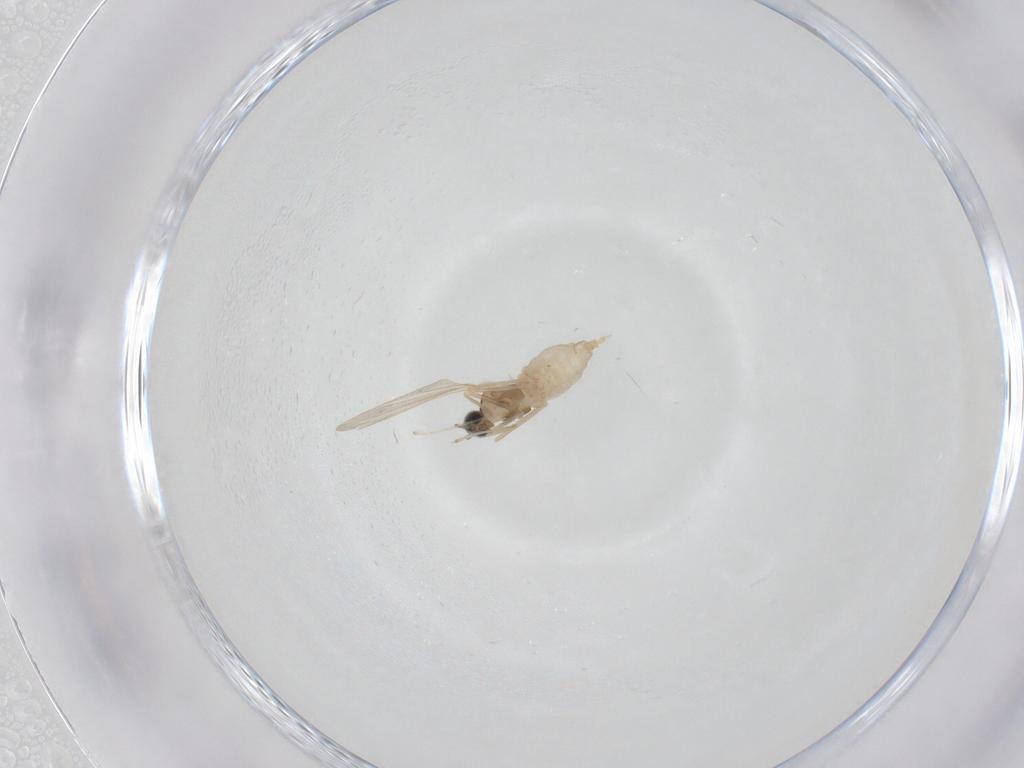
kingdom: Animalia
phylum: Arthropoda
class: Insecta
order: Diptera
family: Cecidomyiidae
